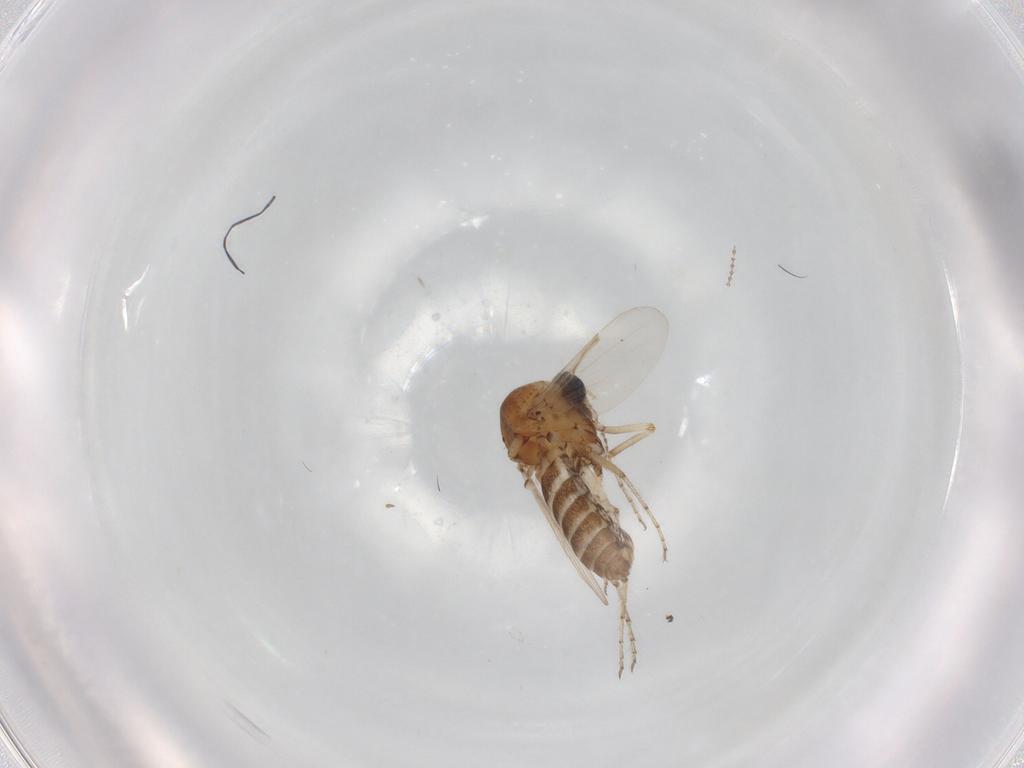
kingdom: Animalia
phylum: Arthropoda
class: Insecta
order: Diptera
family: Ceratopogonidae
